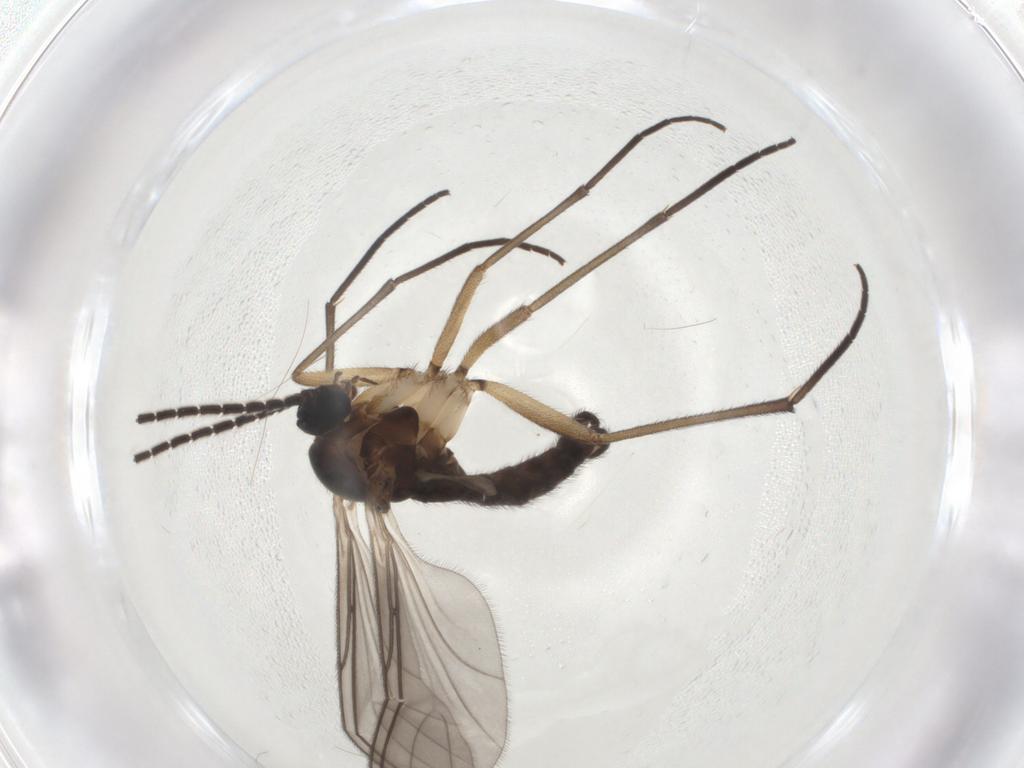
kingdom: Animalia
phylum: Arthropoda
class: Insecta
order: Diptera
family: Sciaridae
